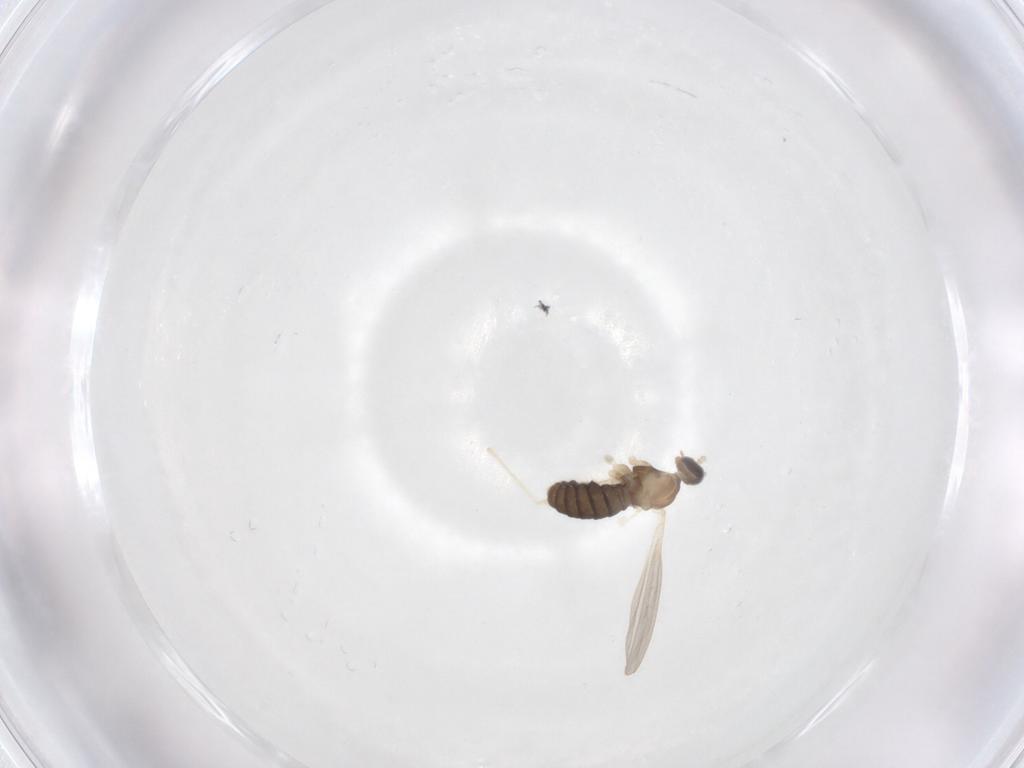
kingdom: Animalia
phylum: Arthropoda
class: Insecta
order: Diptera
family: Cecidomyiidae
